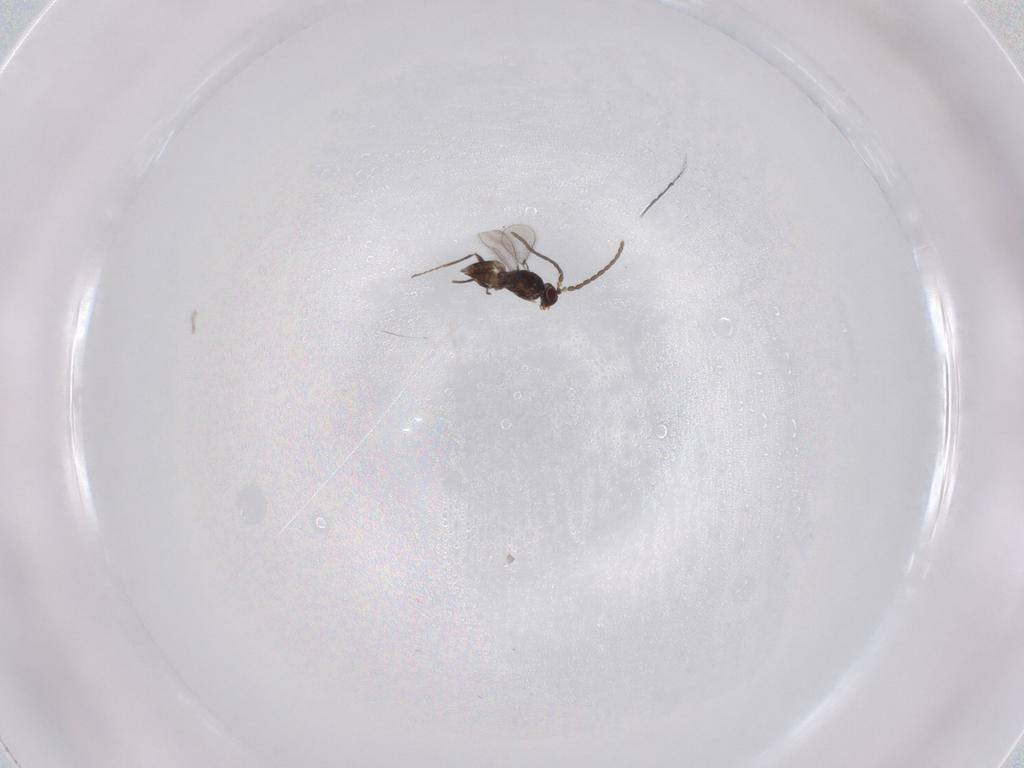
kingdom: Animalia
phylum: Arthropoda
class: Insecta
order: Hymenoptera
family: Mymaridae
